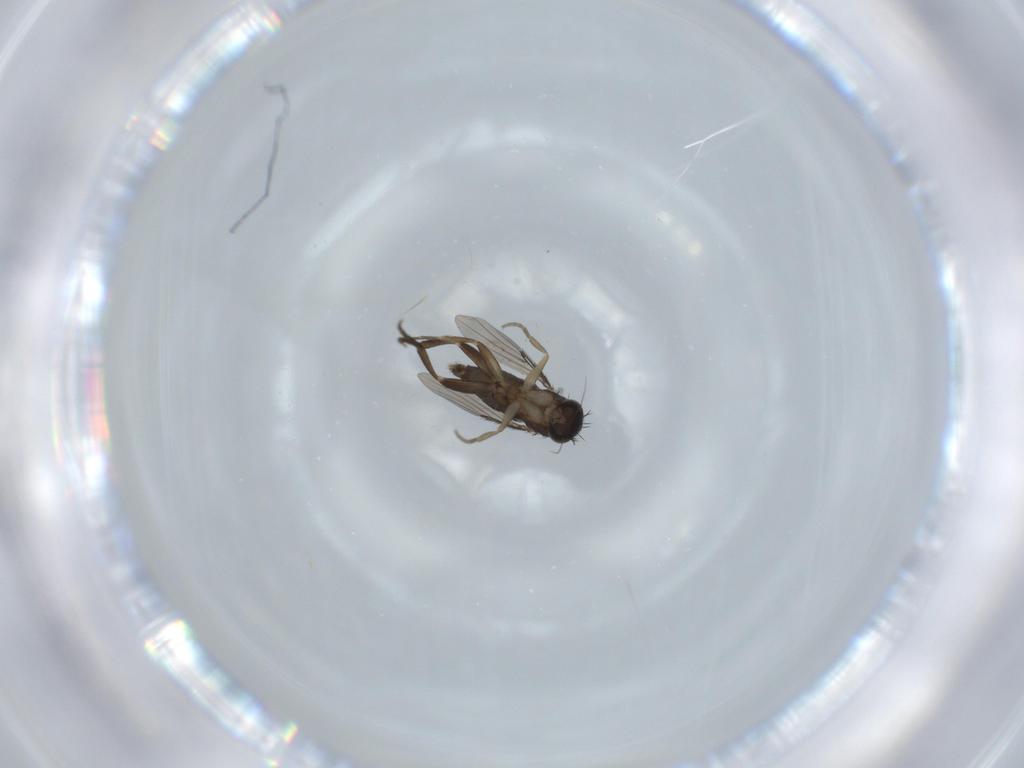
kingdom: Animalia
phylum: Arthropoda
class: Insecta
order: Diptera
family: Phoridae
